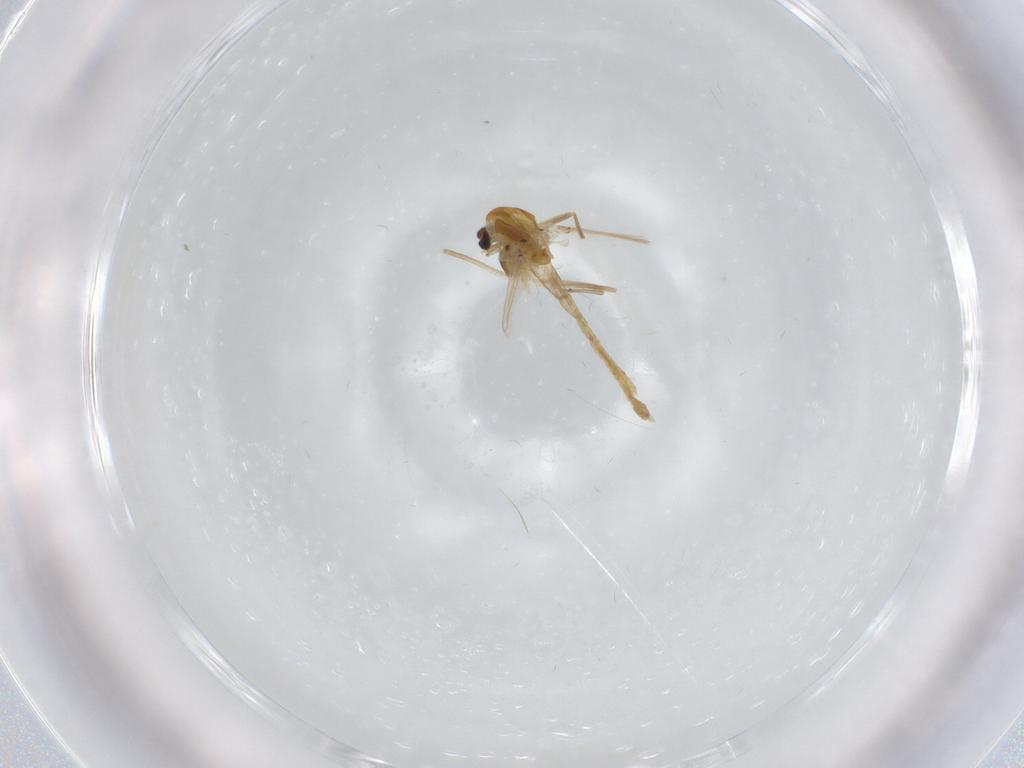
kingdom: Animalia
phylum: Arthropoda
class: Insecta
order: Diptera
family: Chironomidae
